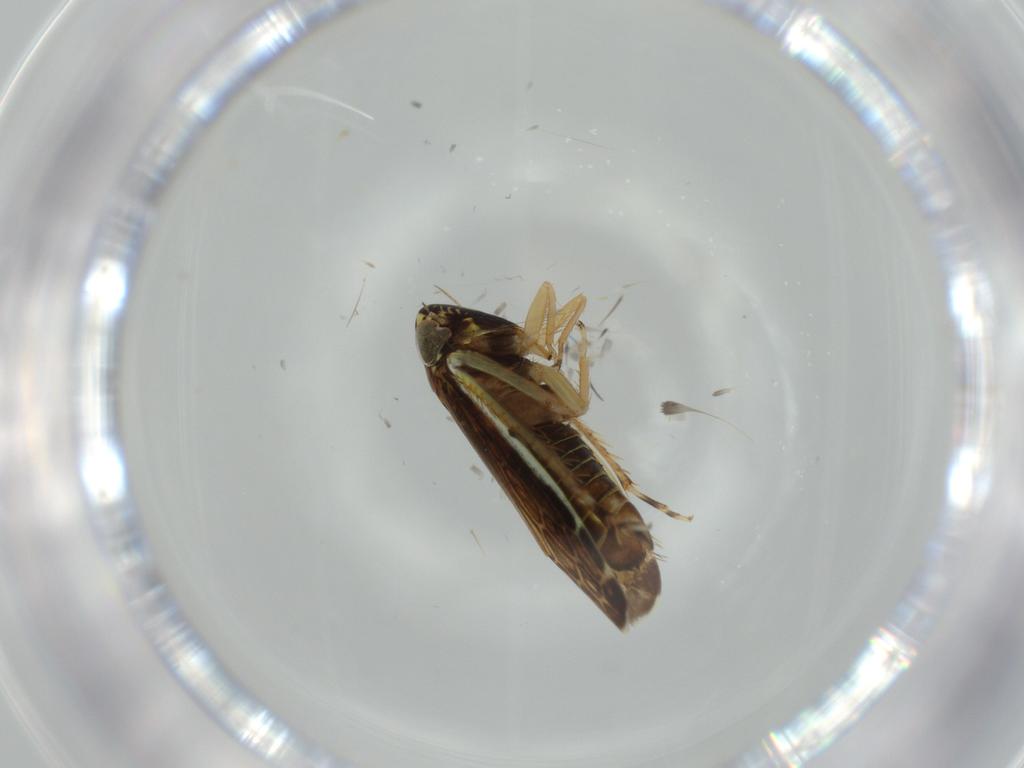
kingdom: Animalia
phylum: Arthropoda
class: Insecta
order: Hemiptera
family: Cicadellidae
